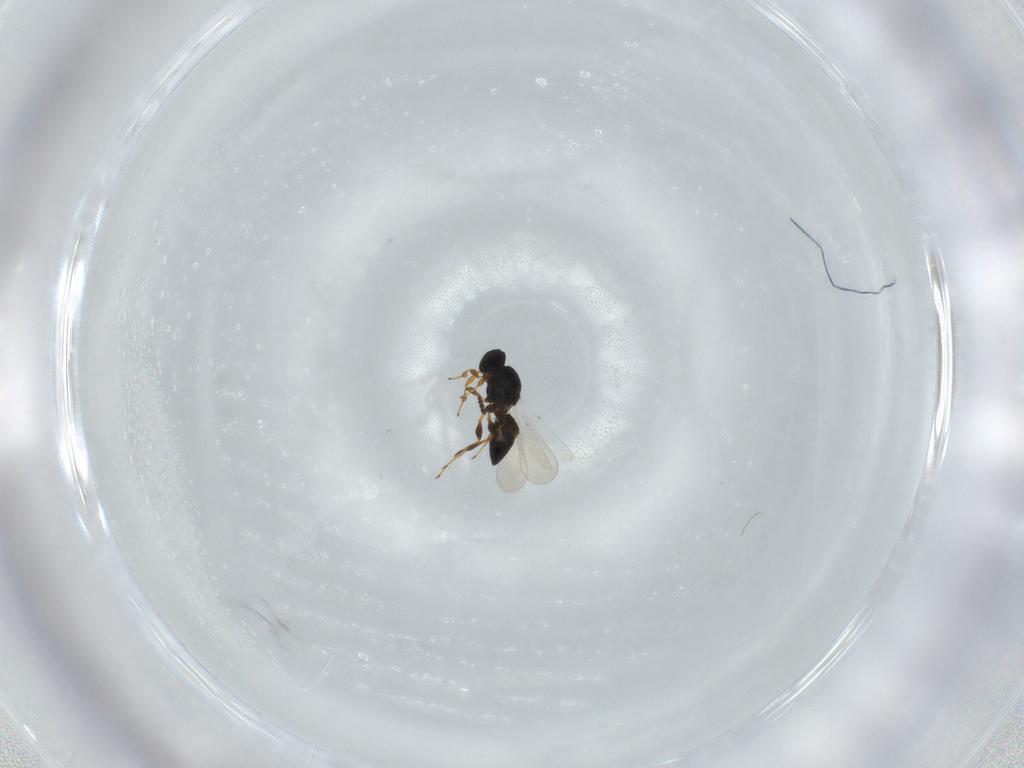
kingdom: Animalia
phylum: Arthropoda
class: Insecta
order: Hymenoptera
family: Platygastridae
